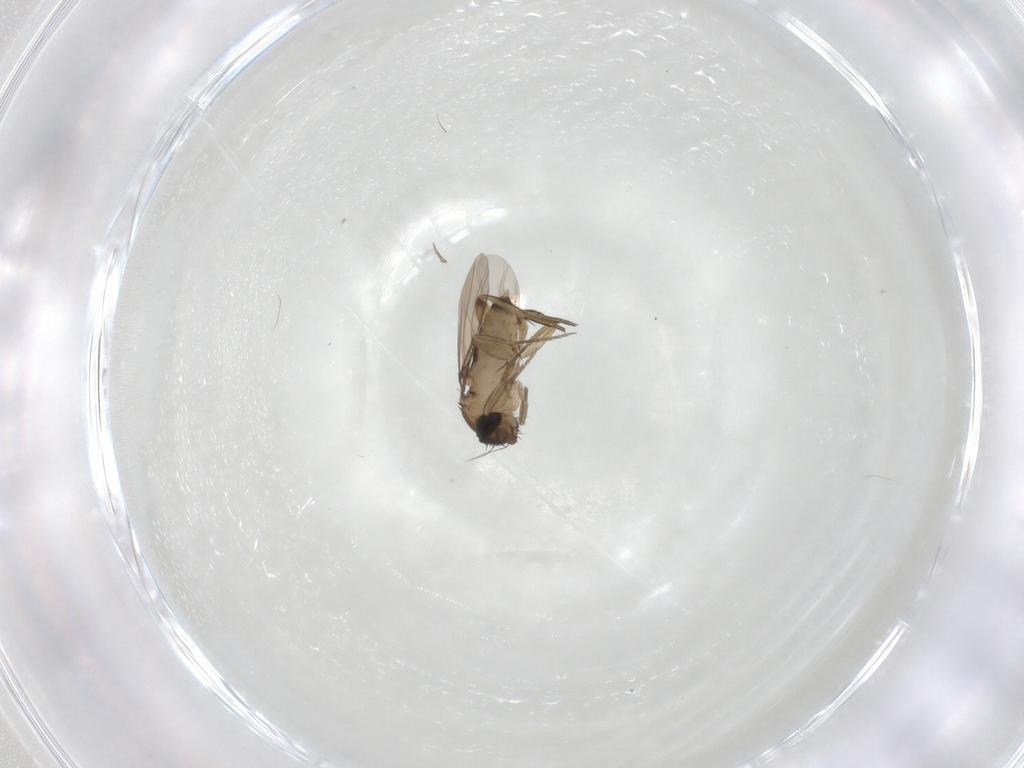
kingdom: Animalia
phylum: Arthropoda
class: Insecta
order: Diptera
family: Phoridae
